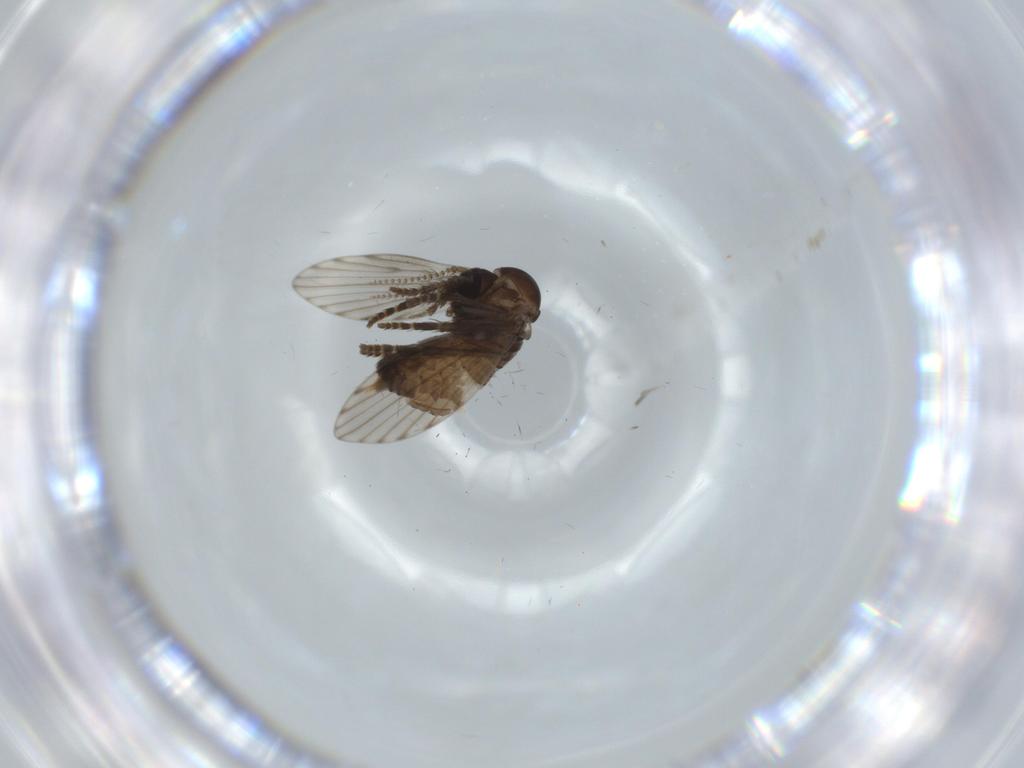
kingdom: Animalia
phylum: Arthropoda
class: Insecta
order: Diptera
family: Psychodidae
